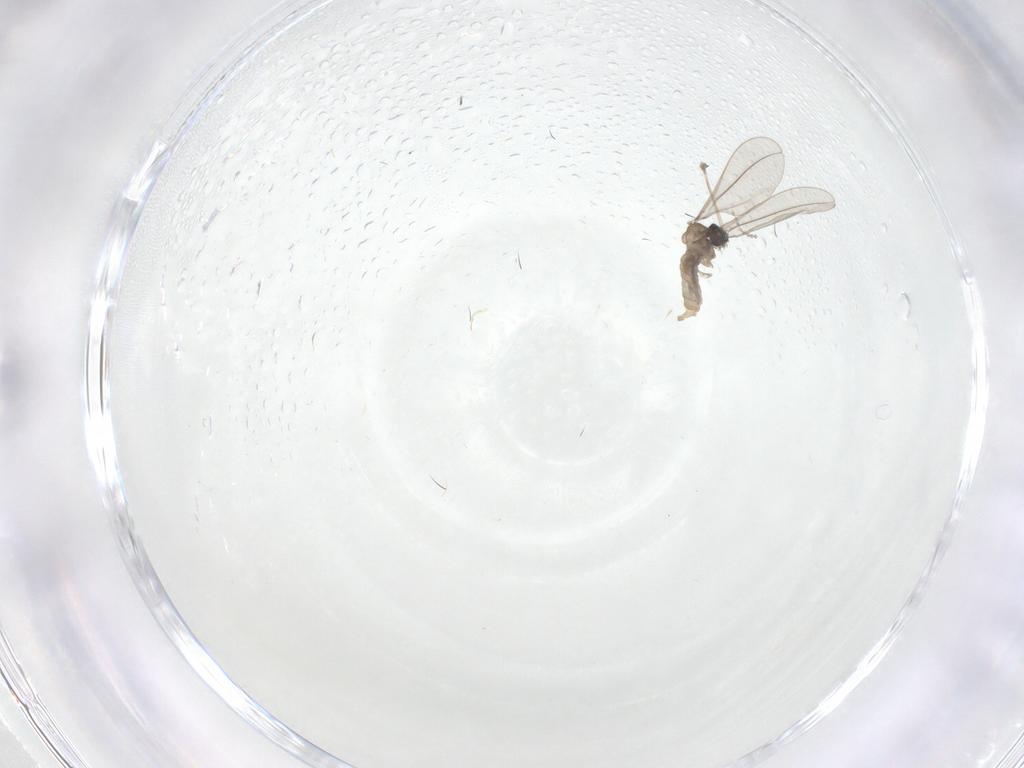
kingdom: Animalia
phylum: Arthropoda
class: Insecta
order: Diptera
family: Cecidomyiidae
